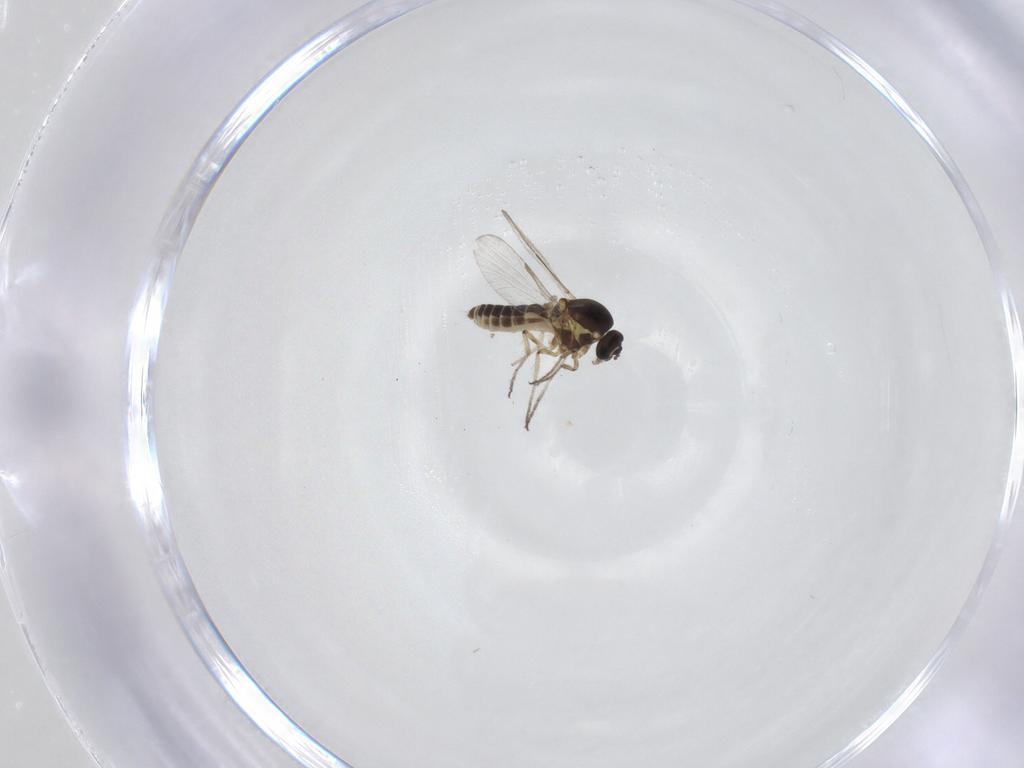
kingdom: Animalia
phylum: Arthropoda
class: Insecta
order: Diptera
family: Ceratopogonidae
